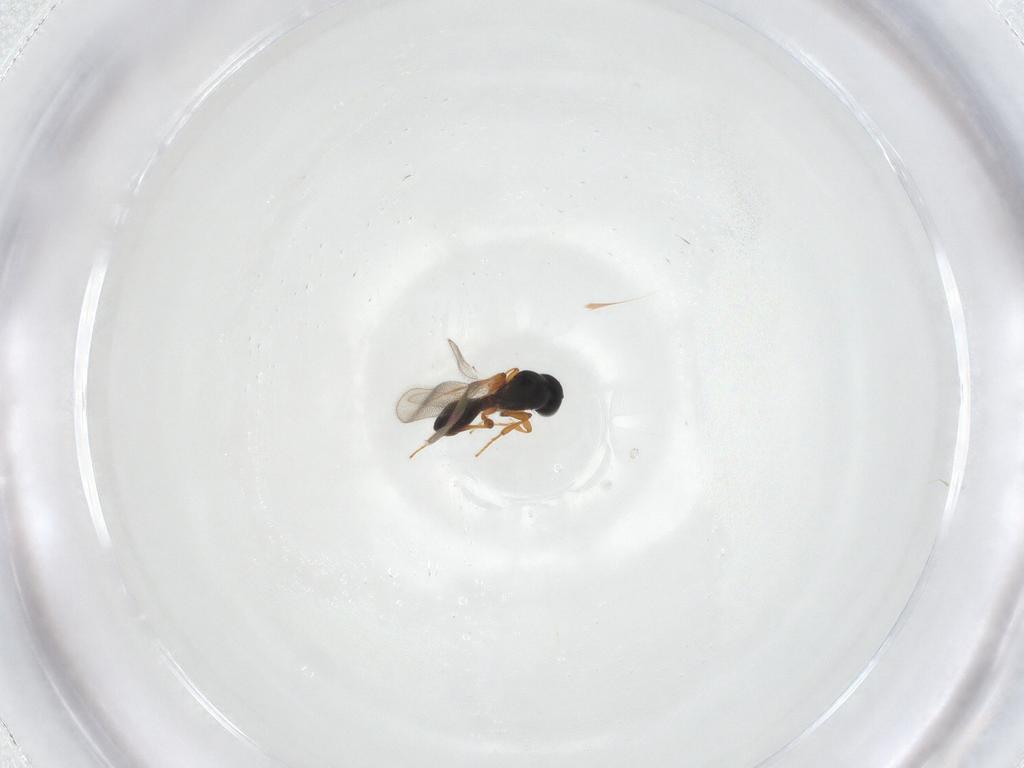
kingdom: Animalia
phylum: Arthropoda
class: Insecta
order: Hymenoptera
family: Platygastridae
